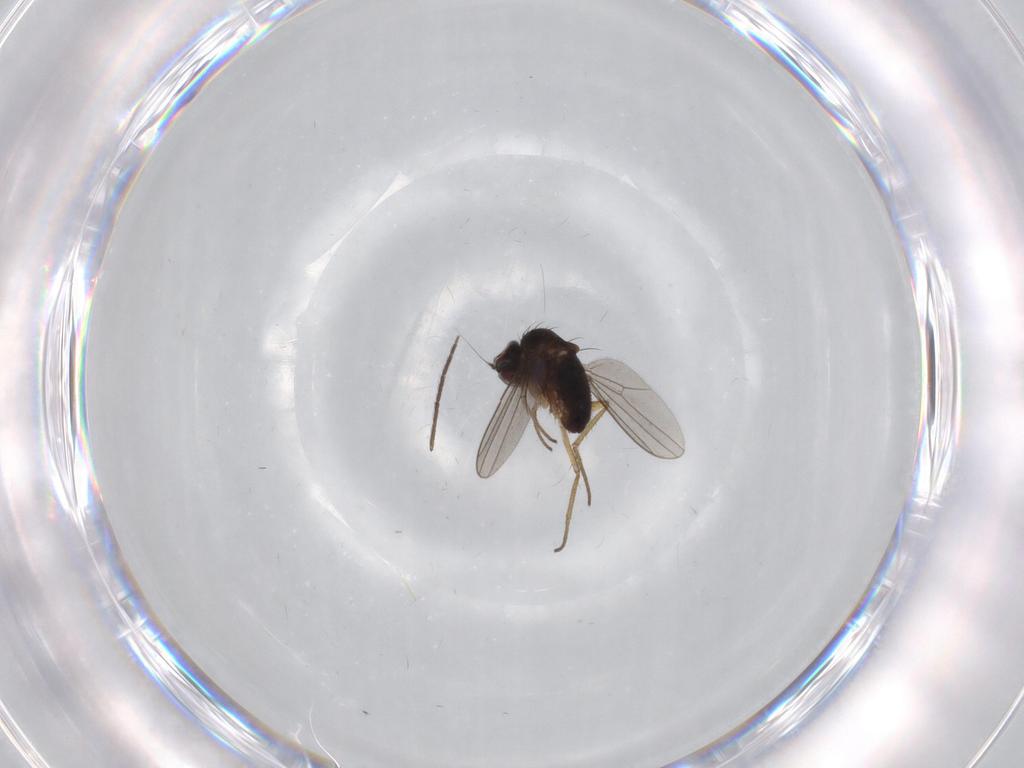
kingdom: Animalia
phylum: Arthropoda
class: Insecta
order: Diptera
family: Dolichopodidae
